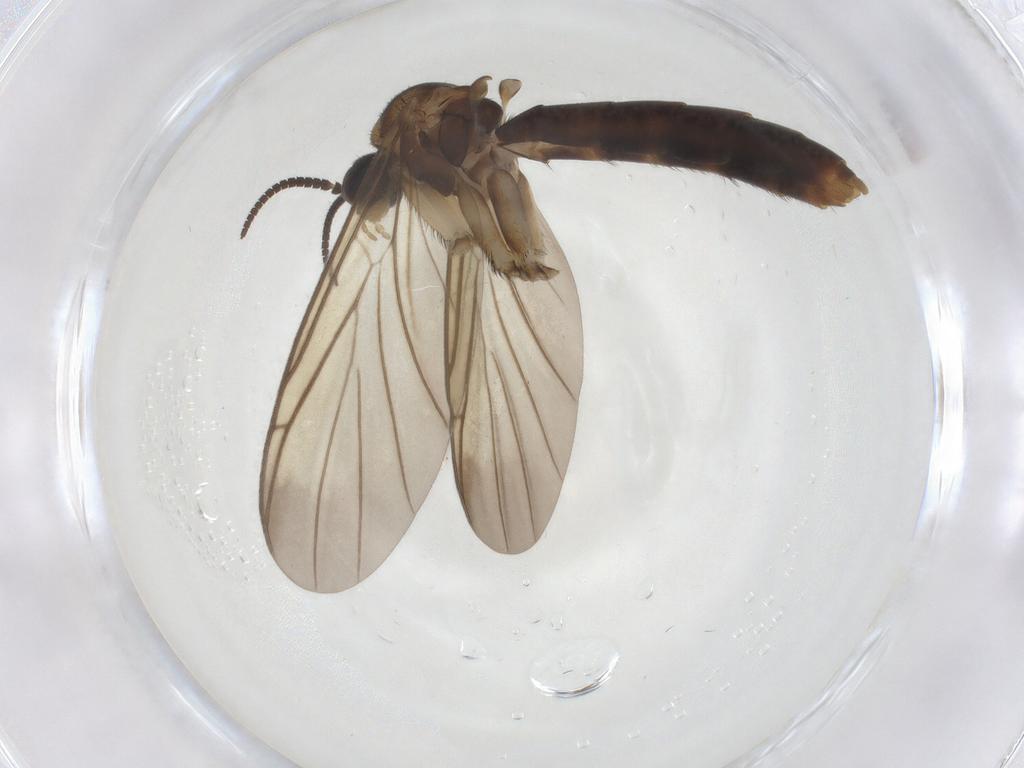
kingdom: Animalia
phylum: Arthropoda
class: Insecta
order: Diptera
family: Keroplatidae
